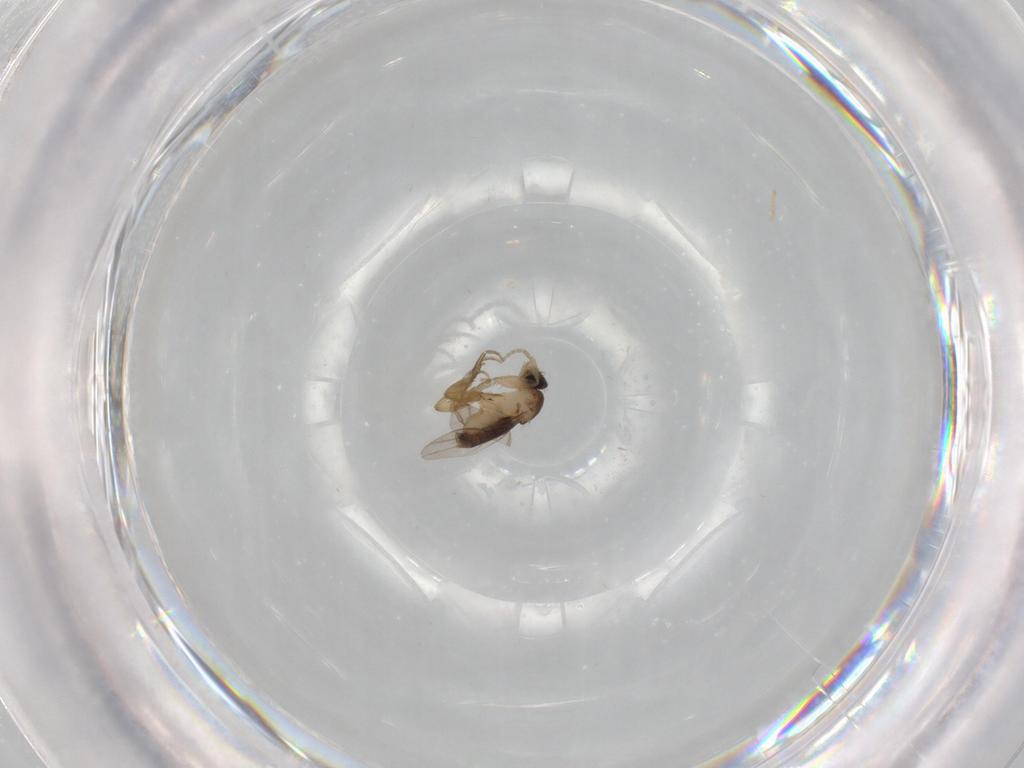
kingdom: Animalia
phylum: Arthropoda
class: Insecta
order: Diptera
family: Phoridae
